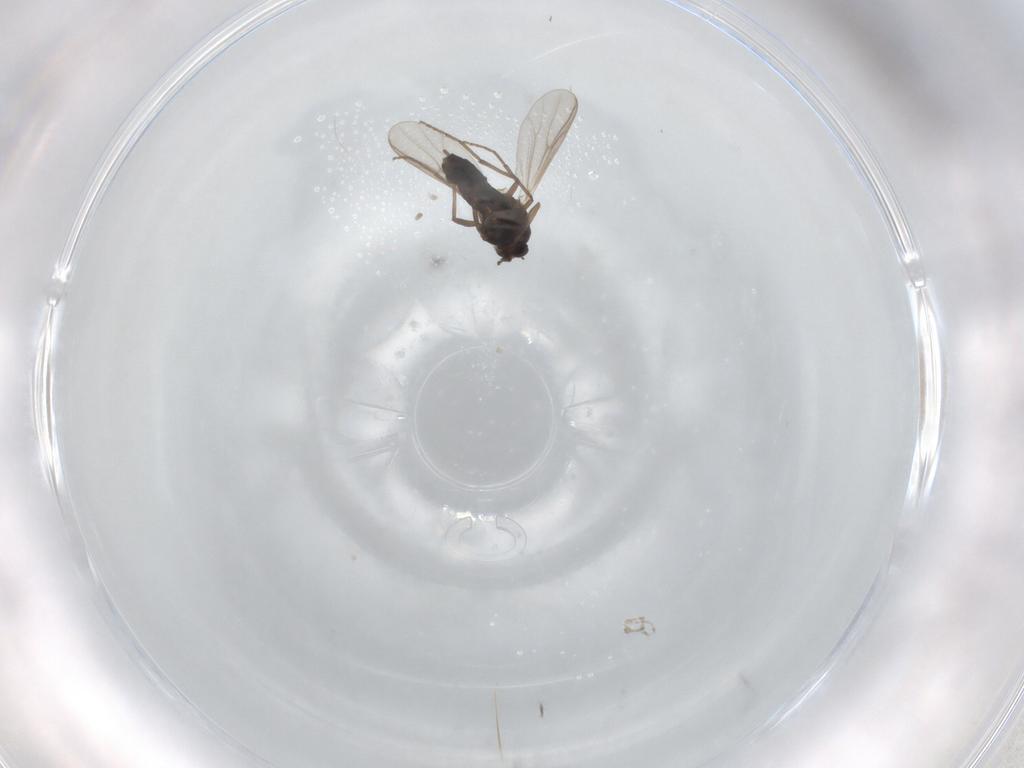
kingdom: Animalia
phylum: Arthropoda
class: Insecta
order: Diptera
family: Chironomidae
